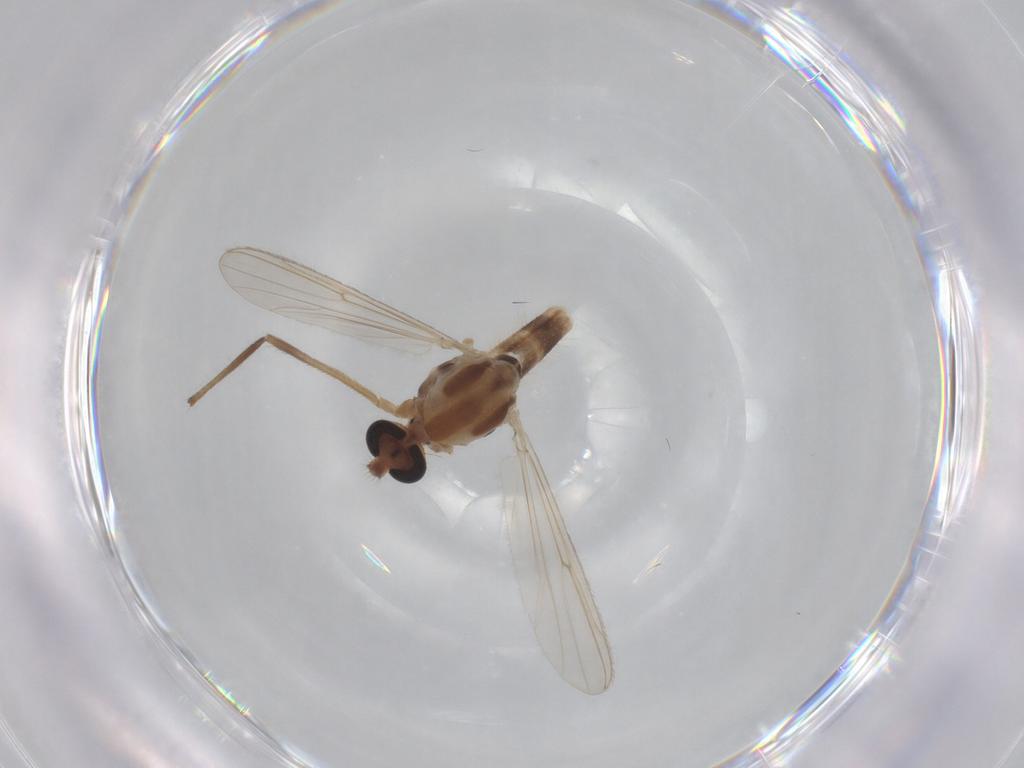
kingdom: Animalia
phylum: Arthropoda
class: Insecta
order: Diptera
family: Chironomidae
